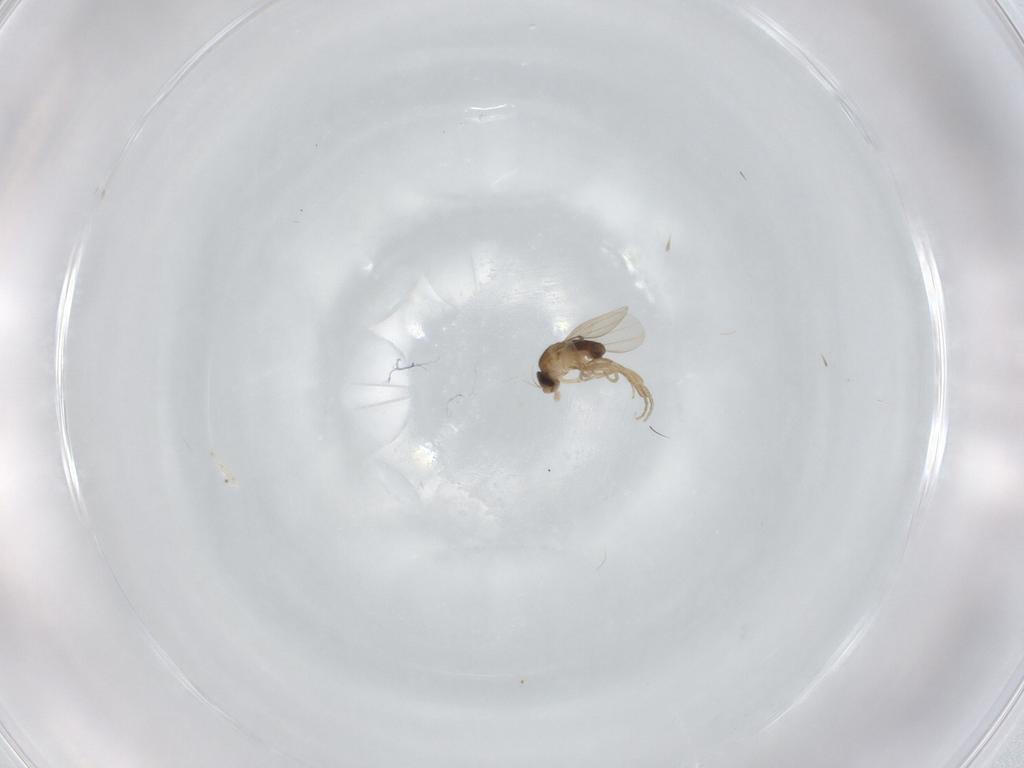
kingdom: Animalia
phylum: Arthropoda
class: Insecta
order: Diptera
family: Phoridae
